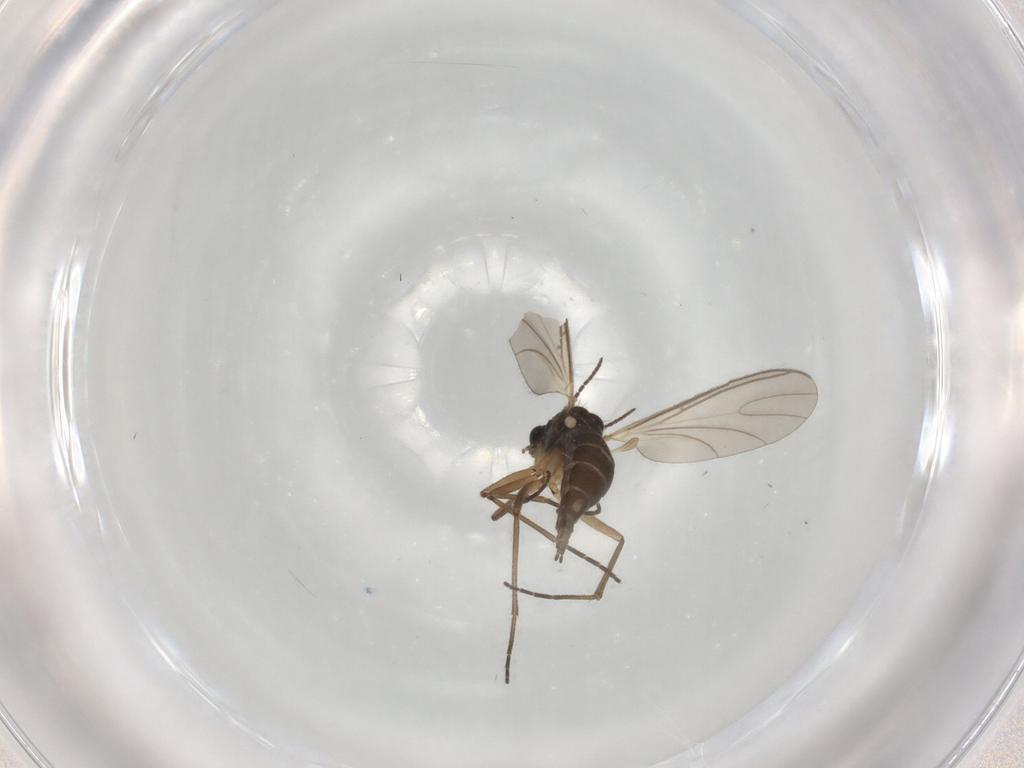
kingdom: Animalia
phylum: Arthropoda
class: Insecta
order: Diptera
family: Sciaridae
